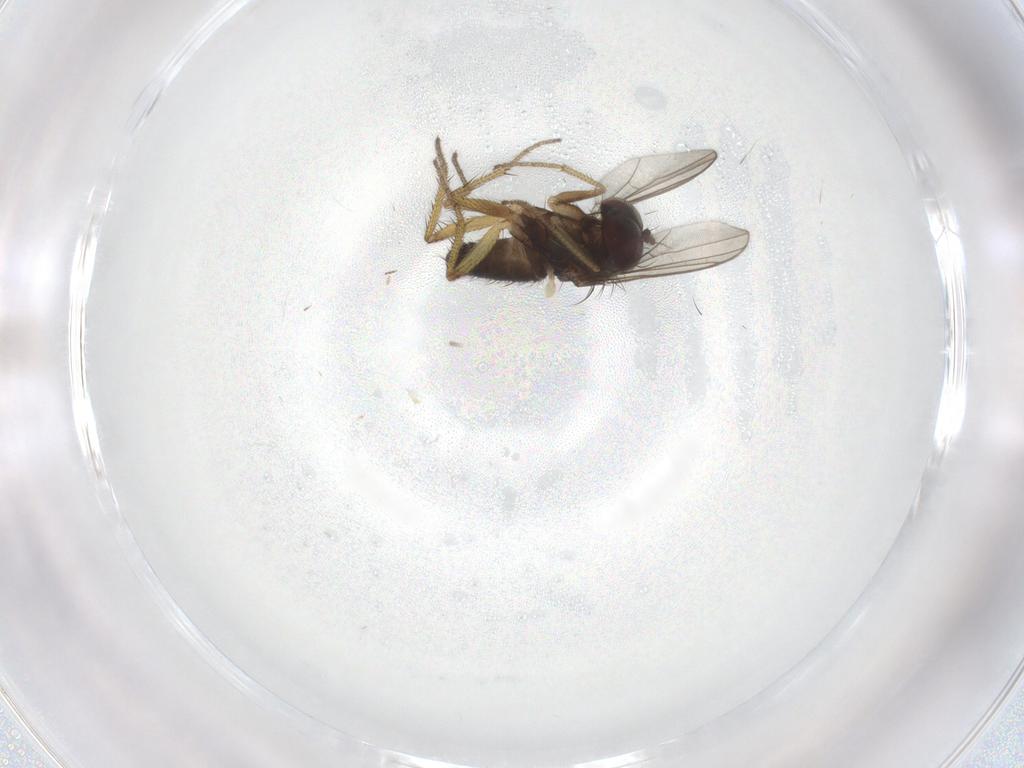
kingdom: Animalia
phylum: Arthropoda
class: Insecta
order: Diptera
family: Chironomidae
